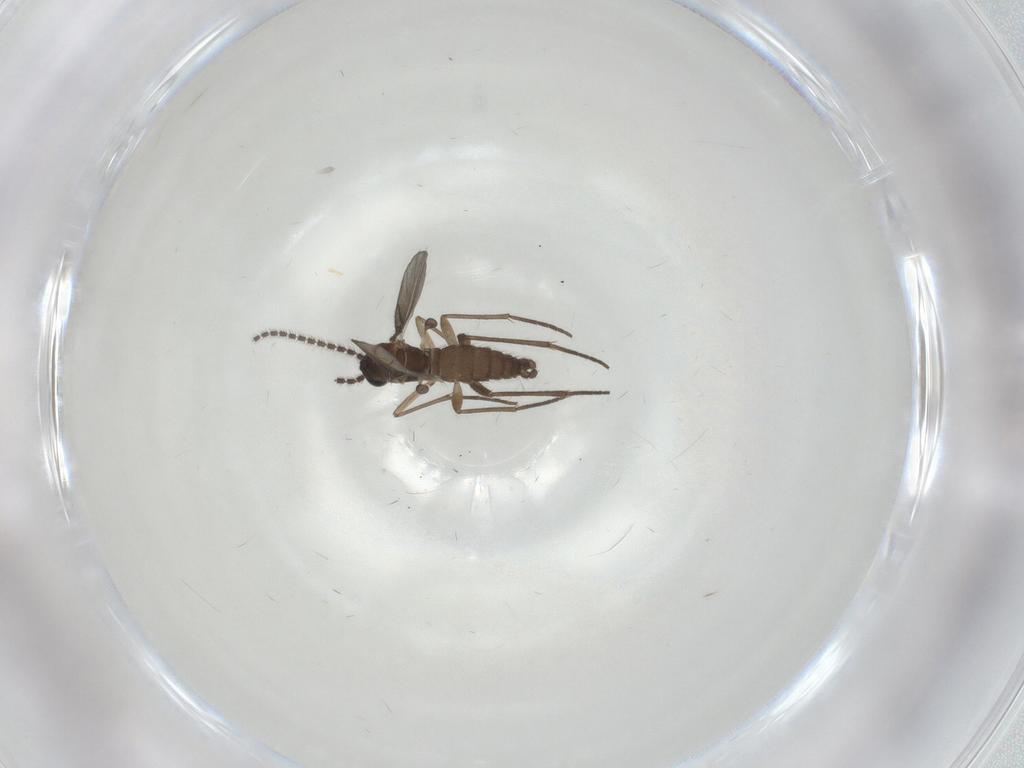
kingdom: Animalia
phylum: Arthropoda
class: Insecta
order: Diptera
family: Sciaridae
